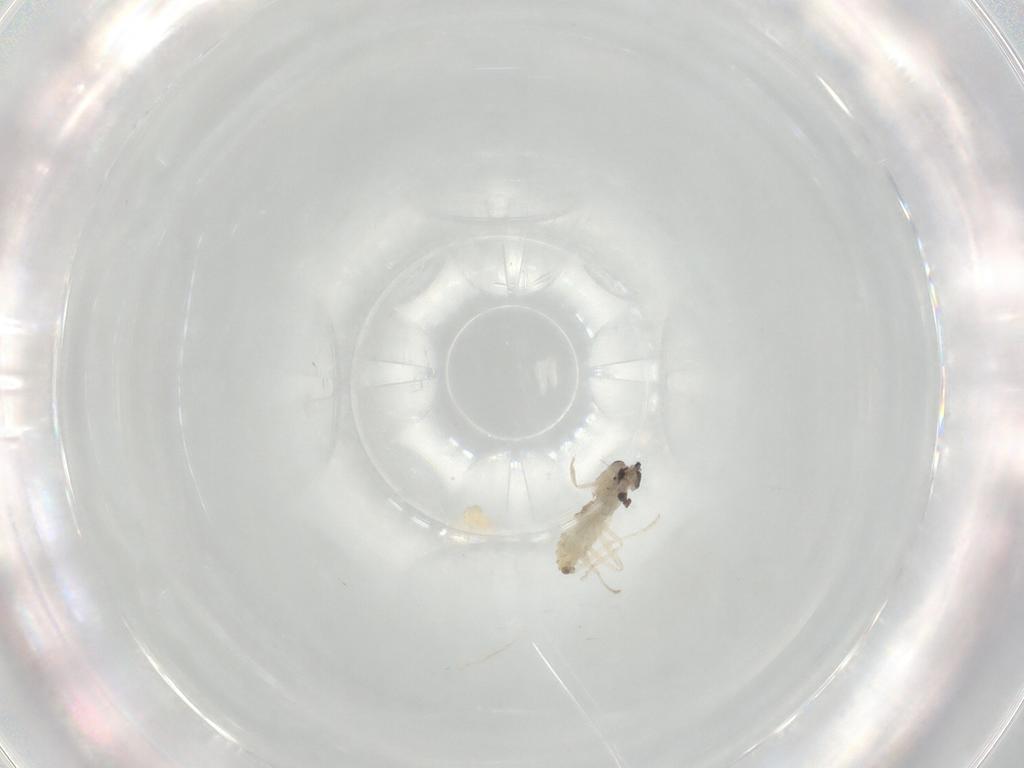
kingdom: Animalia
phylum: Arthropoda
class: Insecta
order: Diptera
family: Cecidomyiidae
